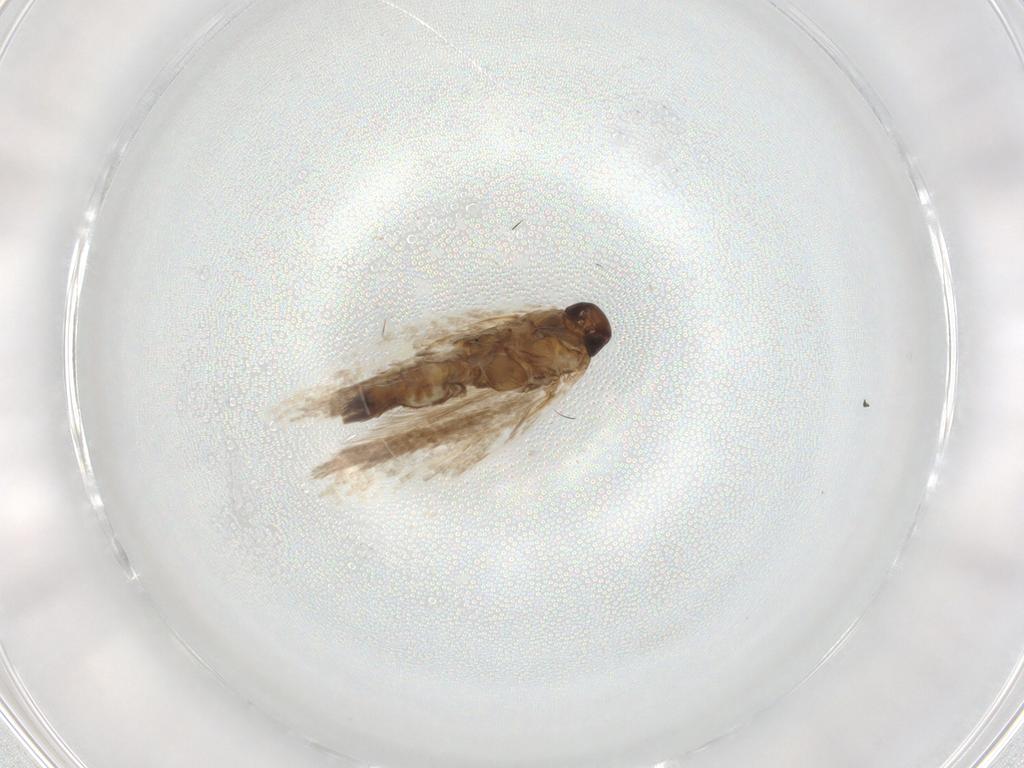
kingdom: Animalia
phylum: Arthropoda
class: Insecta
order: Lepidoptera
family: Gelechiidae
